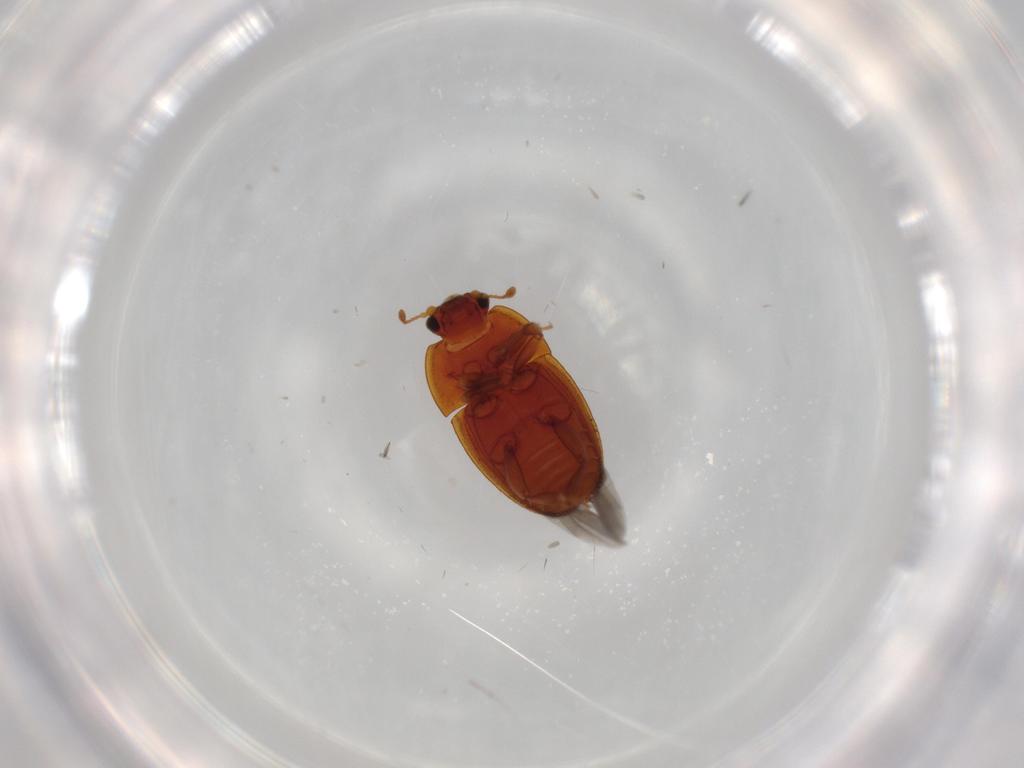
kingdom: Animalia
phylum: Arthropoda
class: Insecta
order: Coleoptera
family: Nitidulidae
